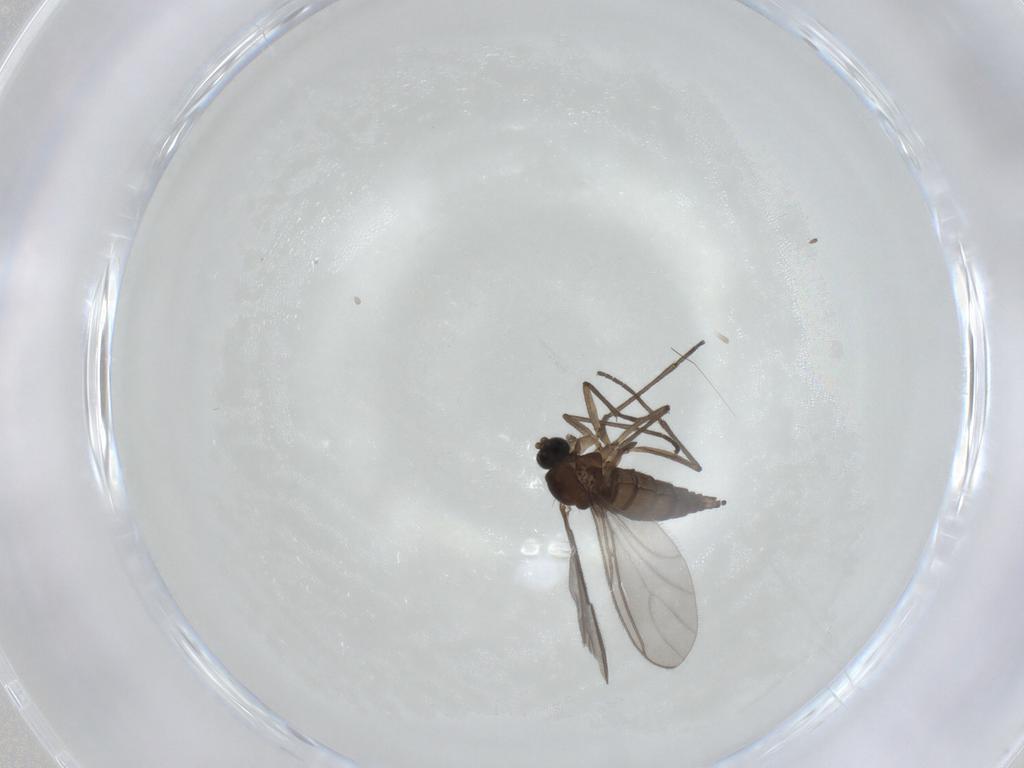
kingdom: Animalia
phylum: Arthropoda
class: Insecta
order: Diptera
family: Sciaridae
